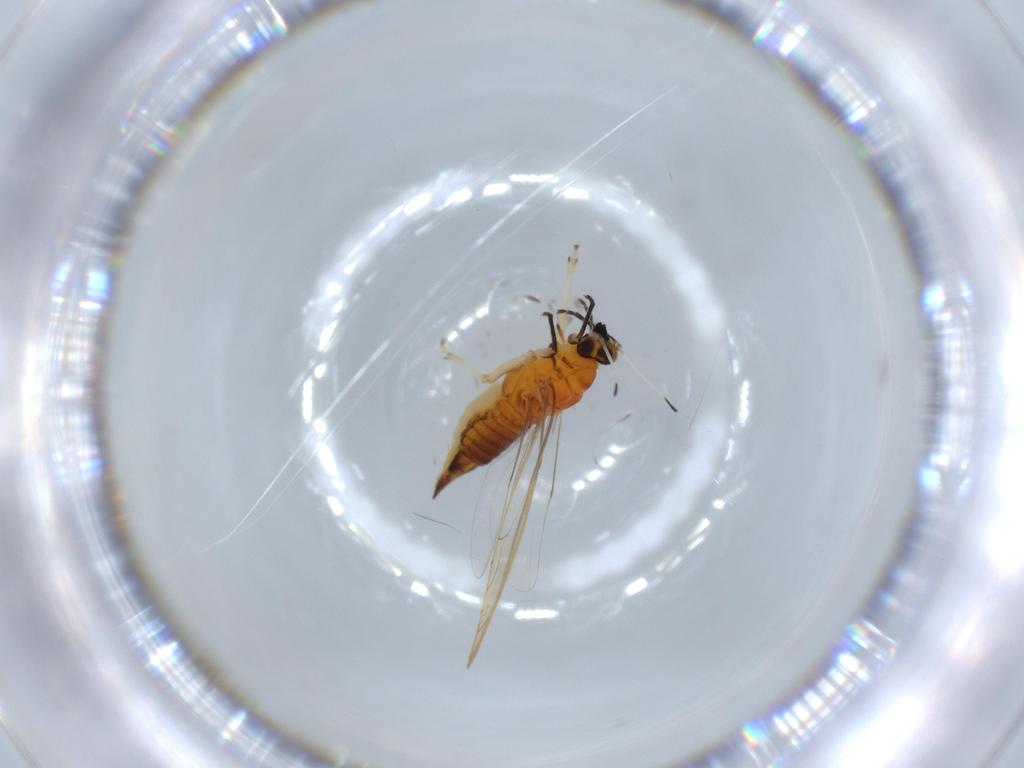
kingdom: Animalia
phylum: Arthropoda
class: Insecta
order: Hemiptera
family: Triozidae
